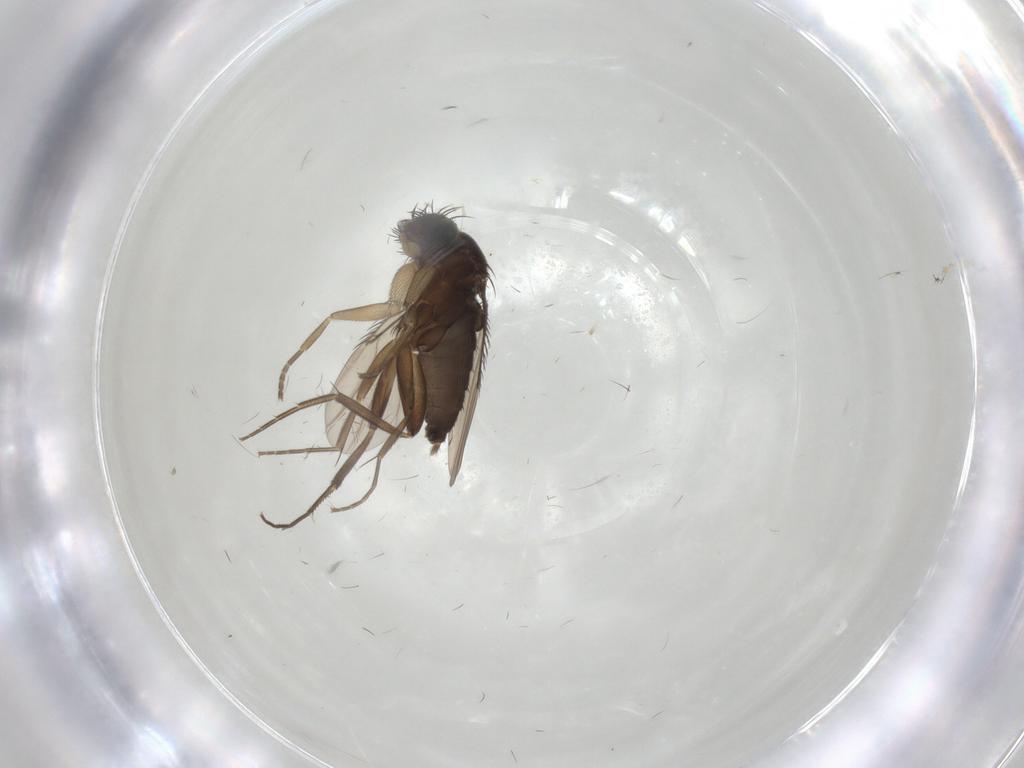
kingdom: Animalia
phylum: Arthropoda
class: Insecta
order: Diptera
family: Phoridae
